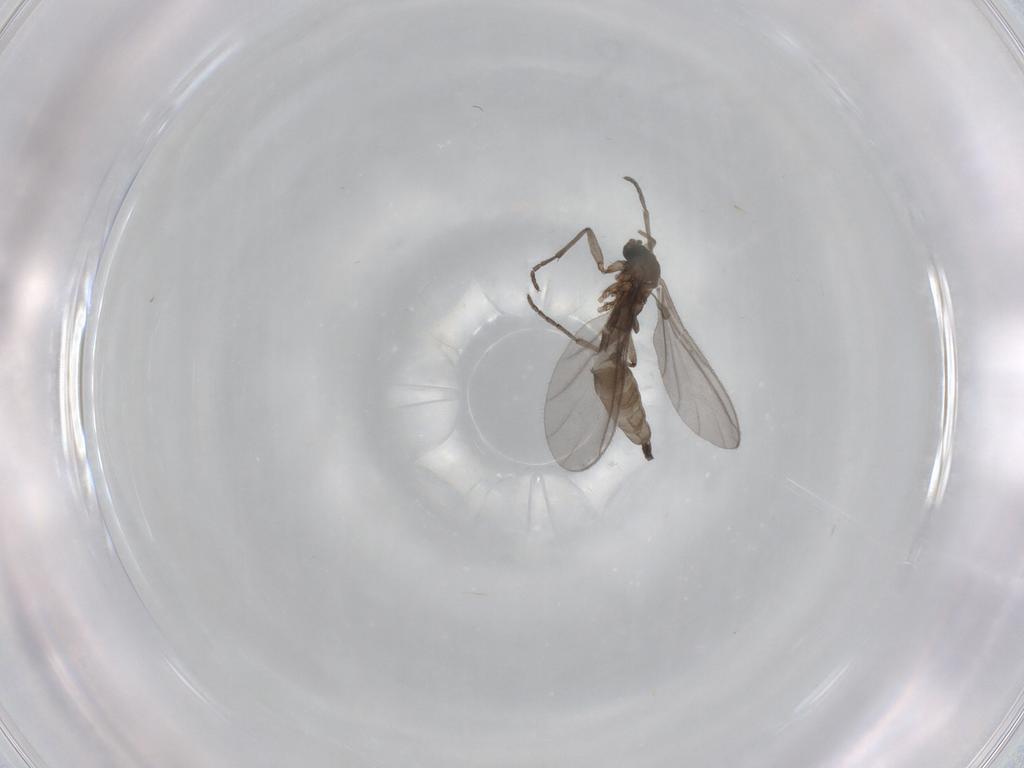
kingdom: Animalia
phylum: Arthropoda
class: Insecta
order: Diptera
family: Sciaridae
